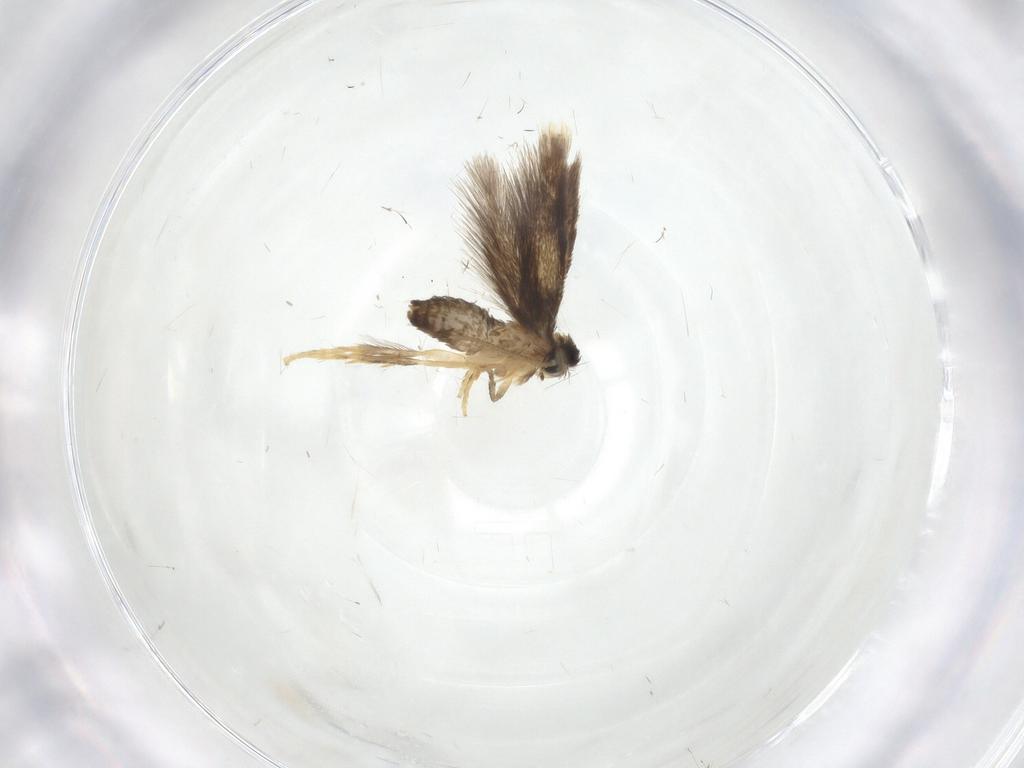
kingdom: Animalia
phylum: Arthropoda
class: Insecta
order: Lepidoptera
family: Nepticulidae
